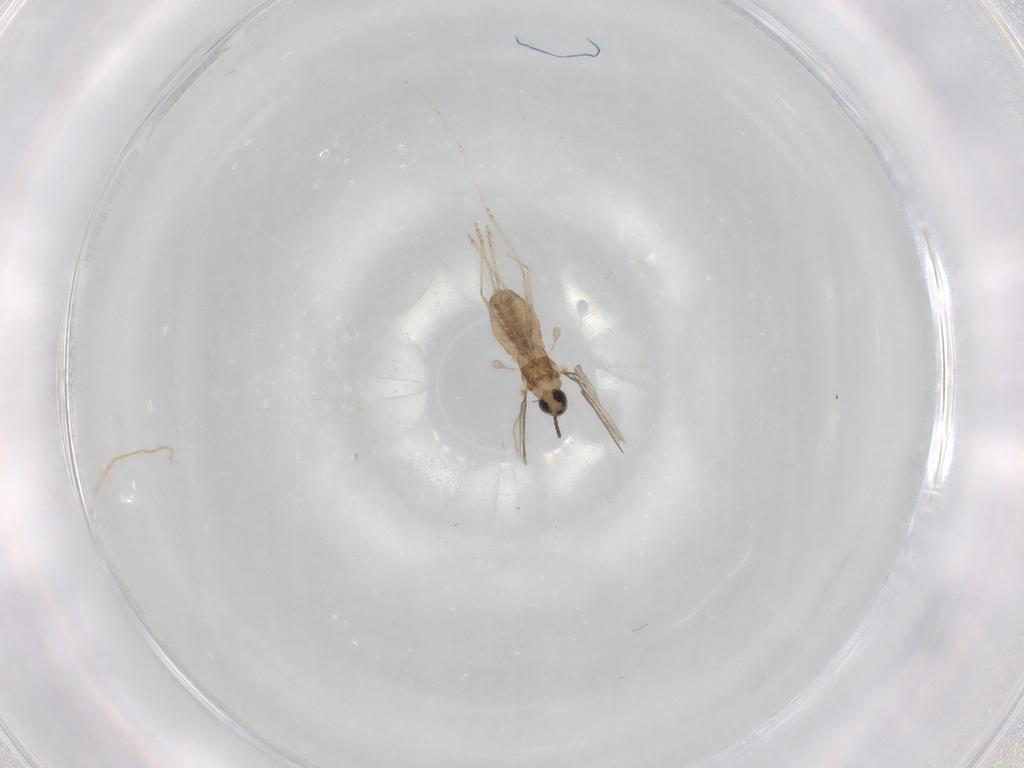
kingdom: Animalia
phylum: Arthropoda
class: Insecta
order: Diptera
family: Cecidomyiidae
